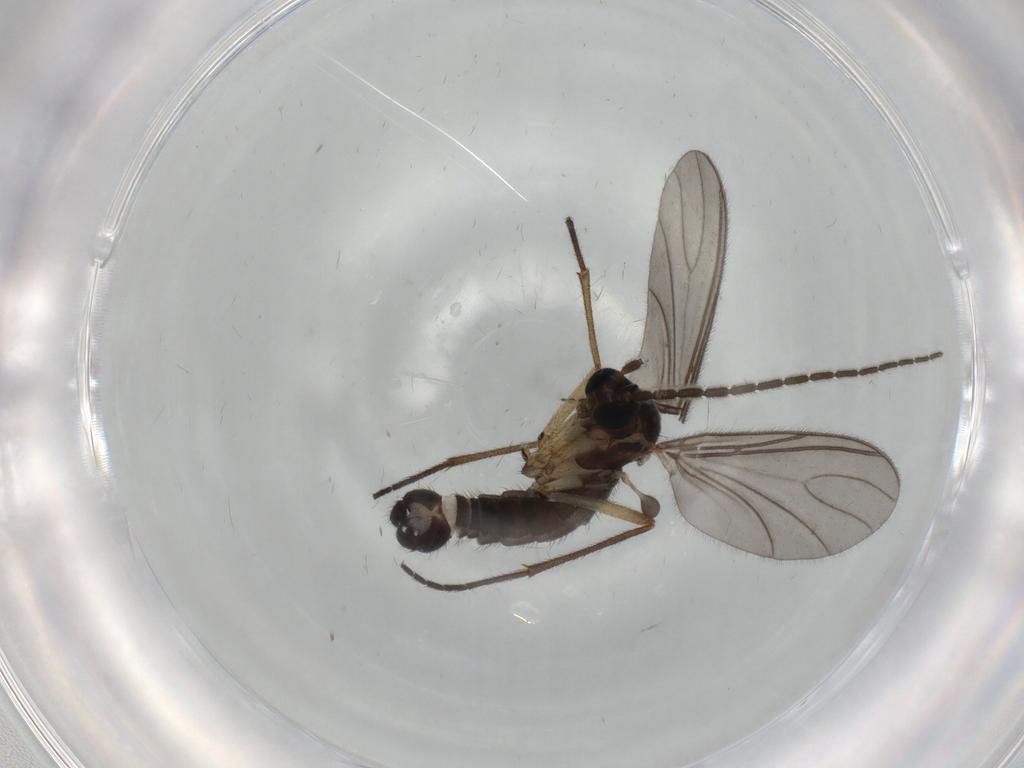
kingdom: Animalia
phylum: Arthropoda
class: Insecta
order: Diptera
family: Sciaridae
